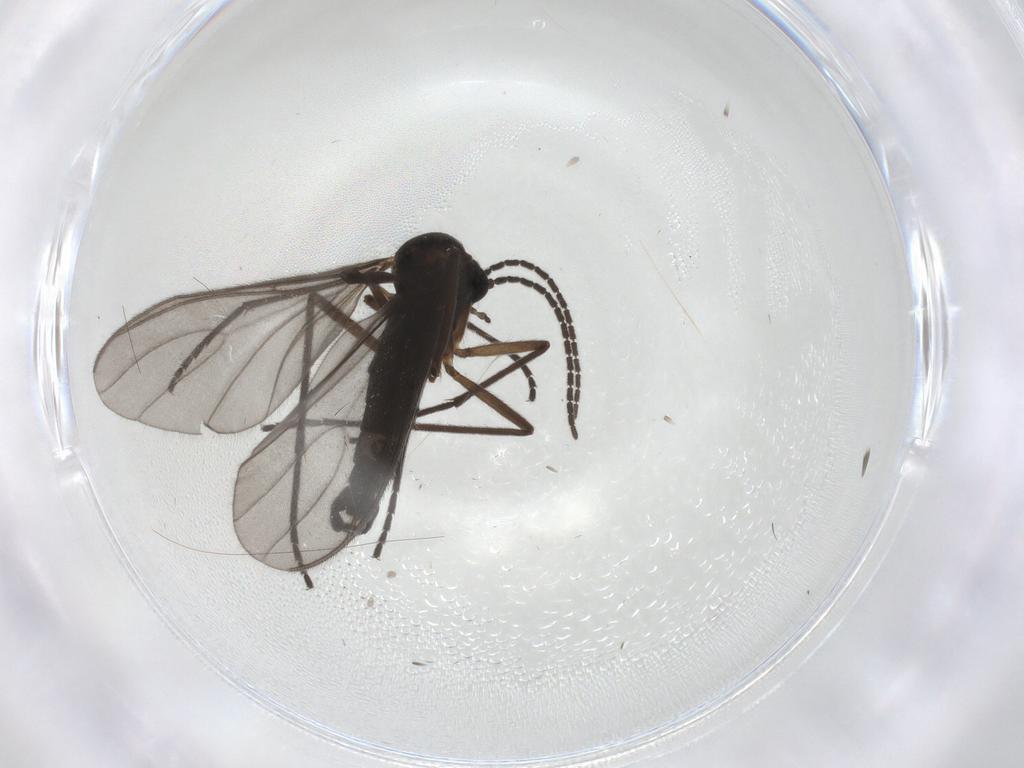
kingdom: Animalia
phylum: Arthropoda
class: Insecta
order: Diptera
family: Sciaridae
